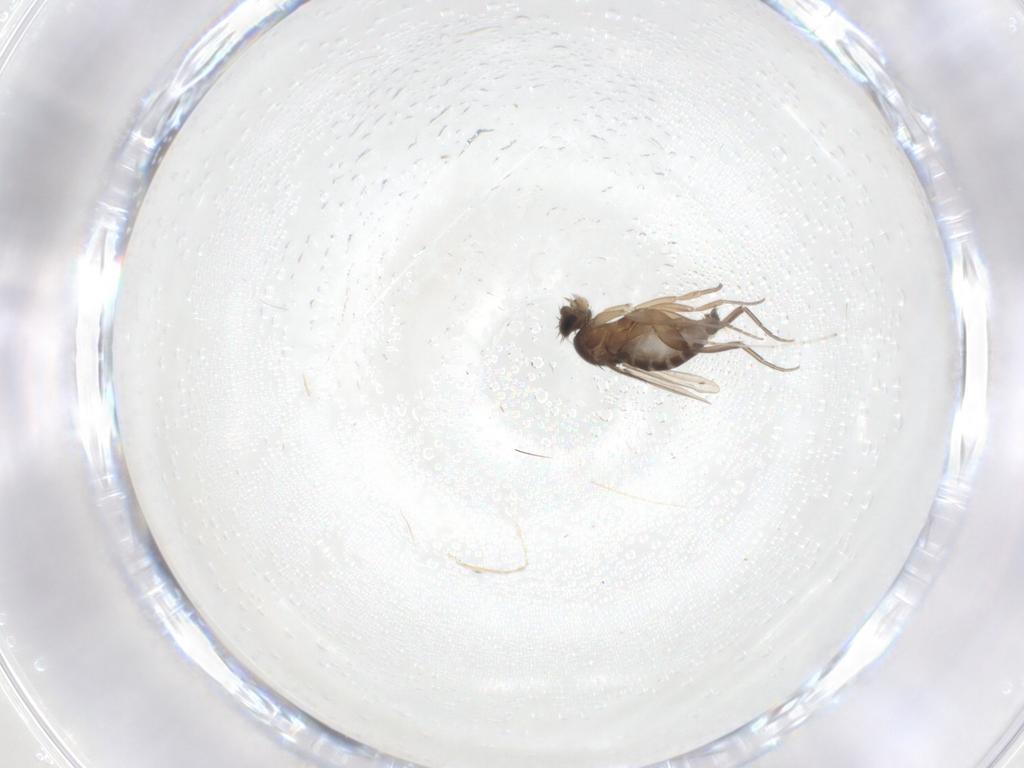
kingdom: Animalia
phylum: Arthropoda
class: Insecta
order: Diptera
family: Phoridae
